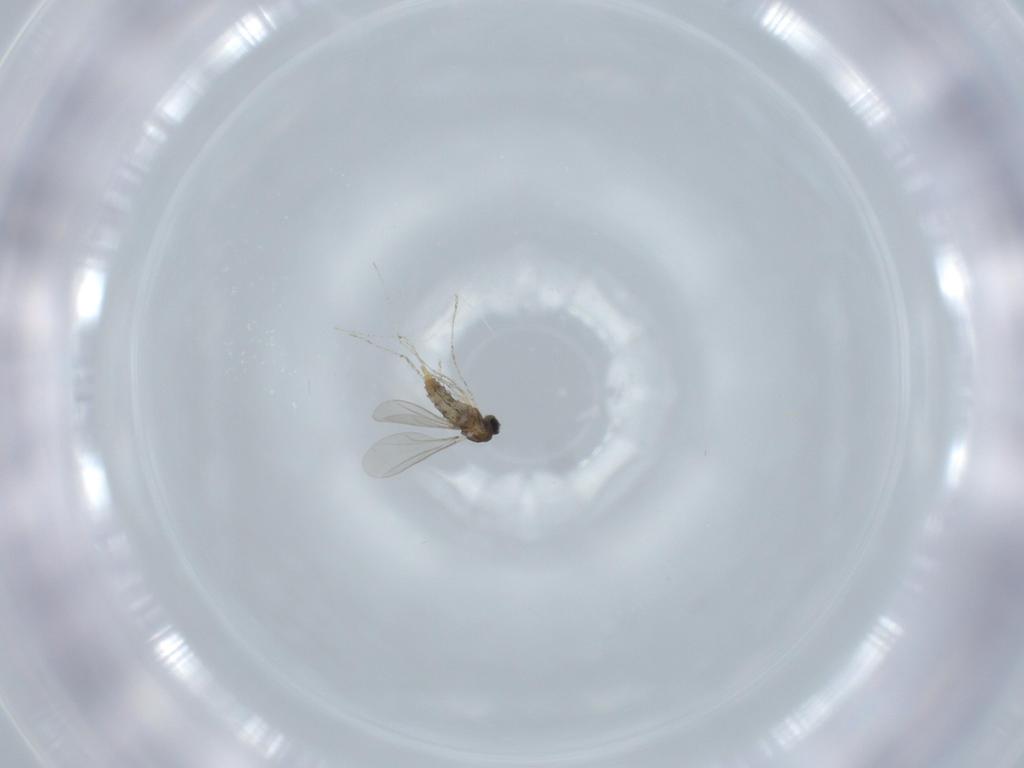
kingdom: Animalia
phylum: Arthropoda
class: Insecta
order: Diptera
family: Cecidomyiidae
